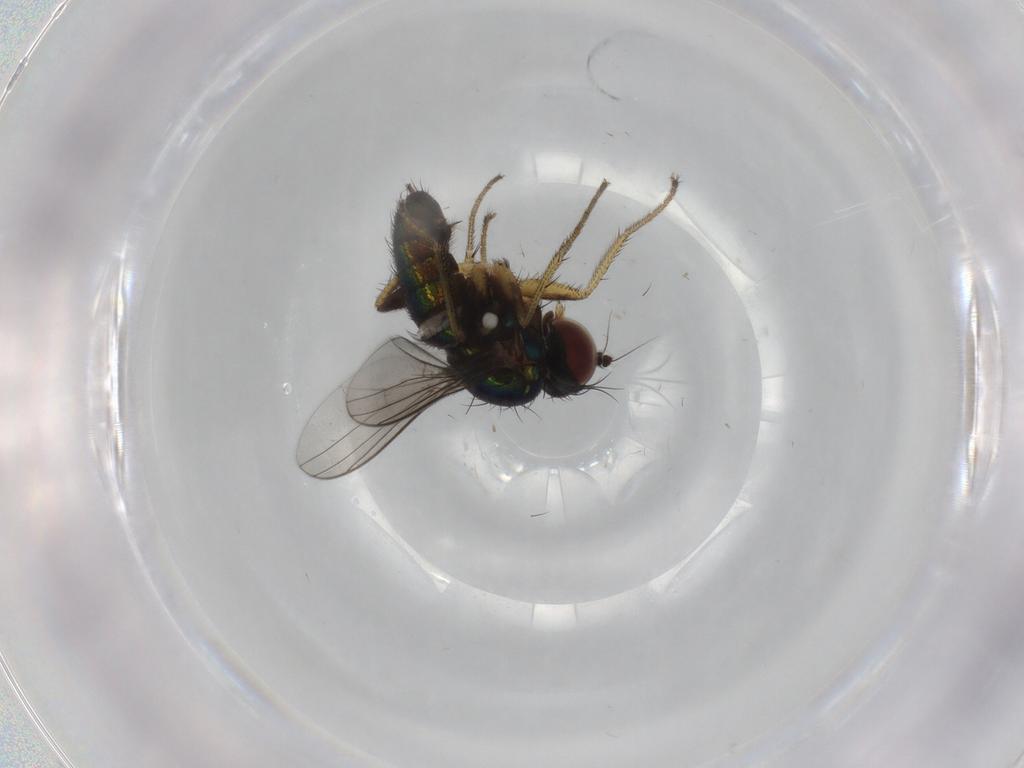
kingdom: Animalia
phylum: Arthropoda
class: Insecta
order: Diptera
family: Dolichopodidae
